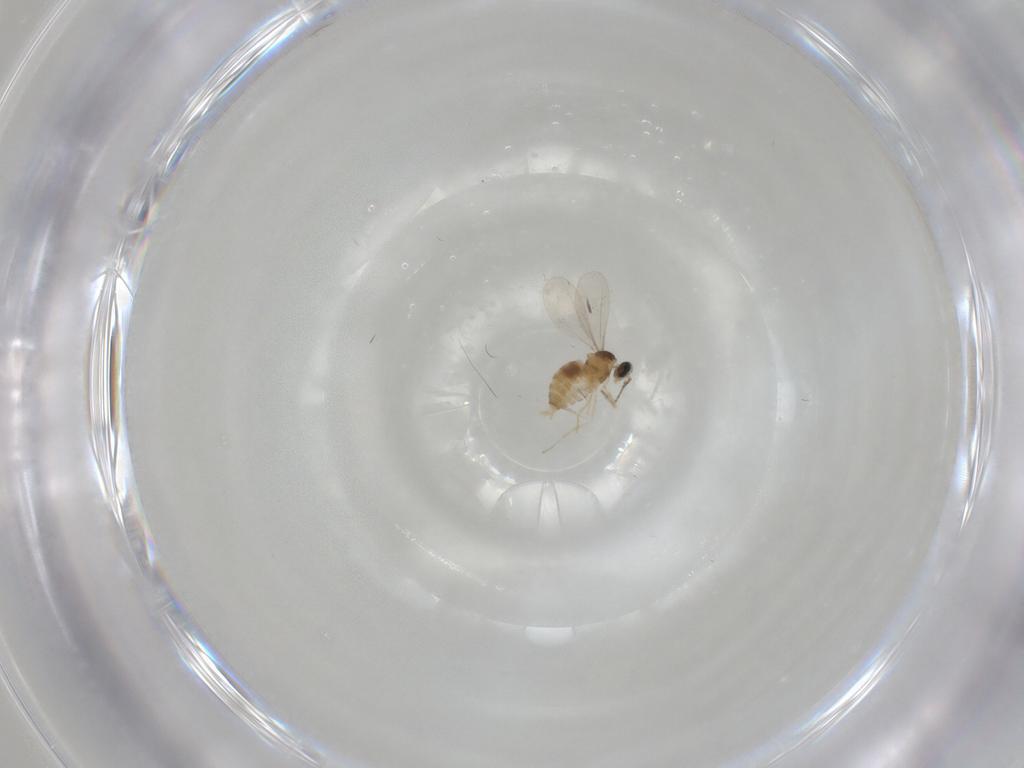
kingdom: Animalia
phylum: Arthropoda
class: Insecta
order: Diptera
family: Cecidomyiidae
